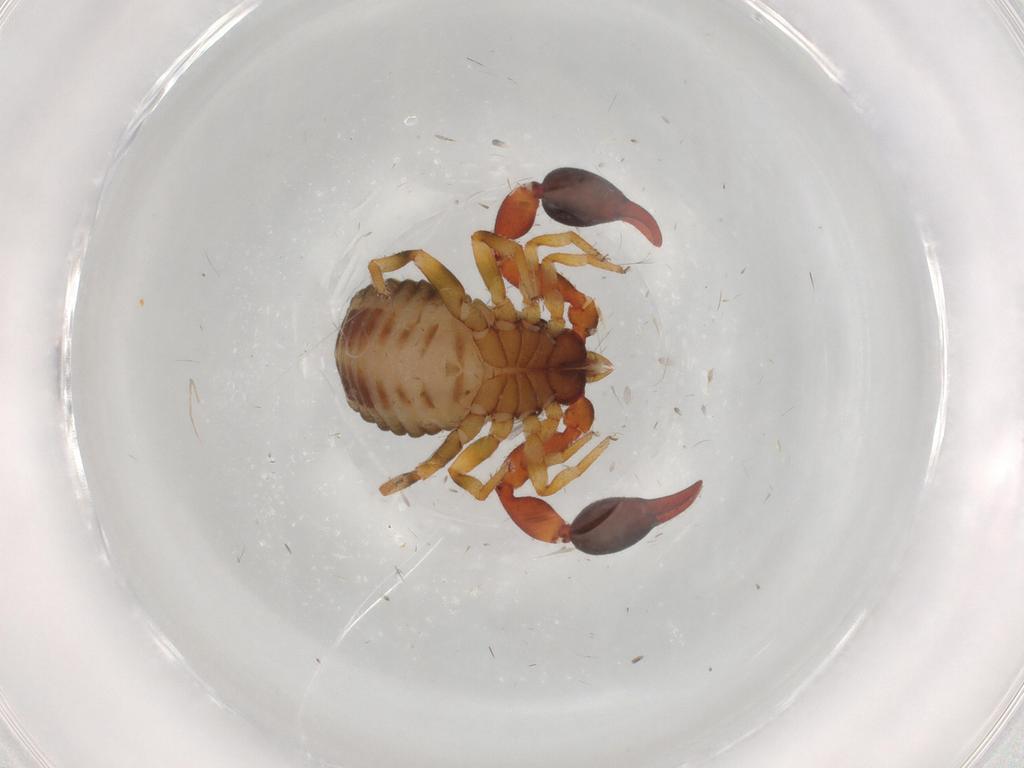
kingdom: Animalia
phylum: Arthropoda
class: Arachnida
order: Pseudoscorpiones
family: Chernetidae
